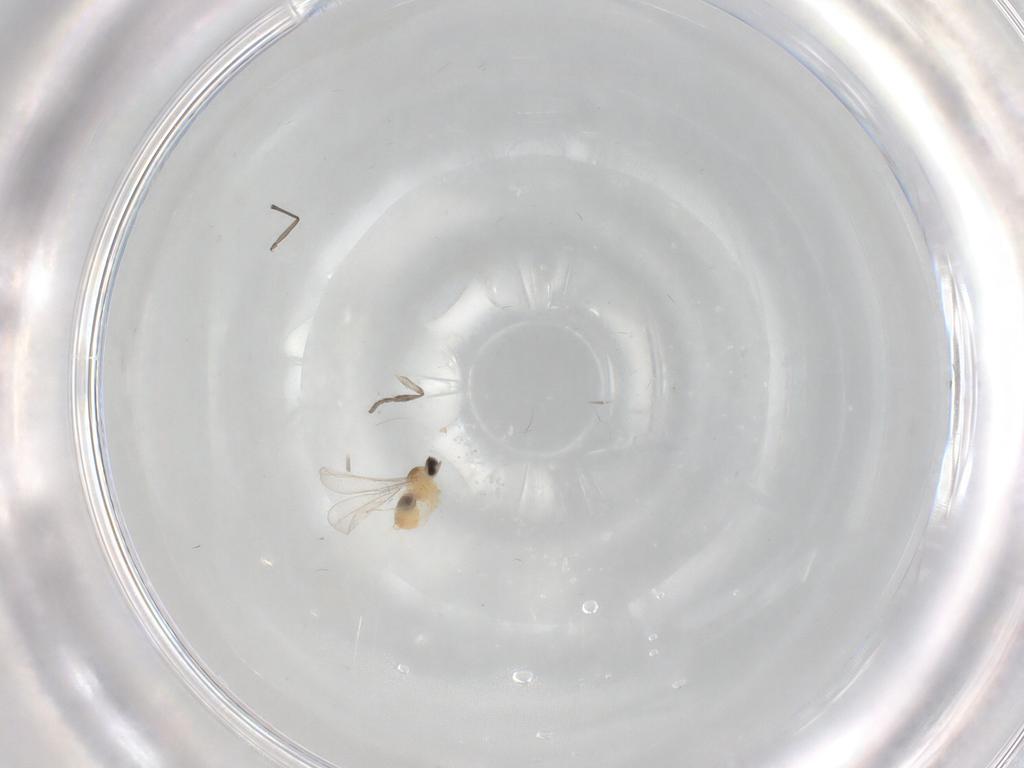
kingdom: Animalia
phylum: Arthropoda
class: Insecta
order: Diptera
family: Cecidomyiidae
